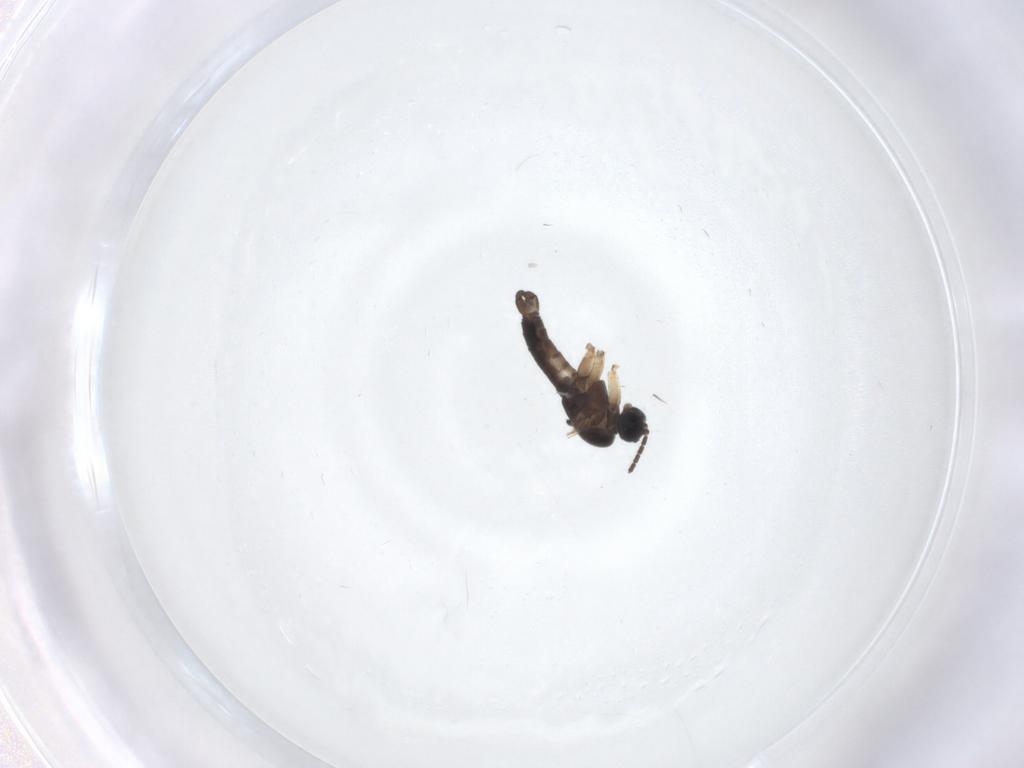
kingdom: Animalia
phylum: Arthropoda
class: Insecta
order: Diptera
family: Sciaridae
